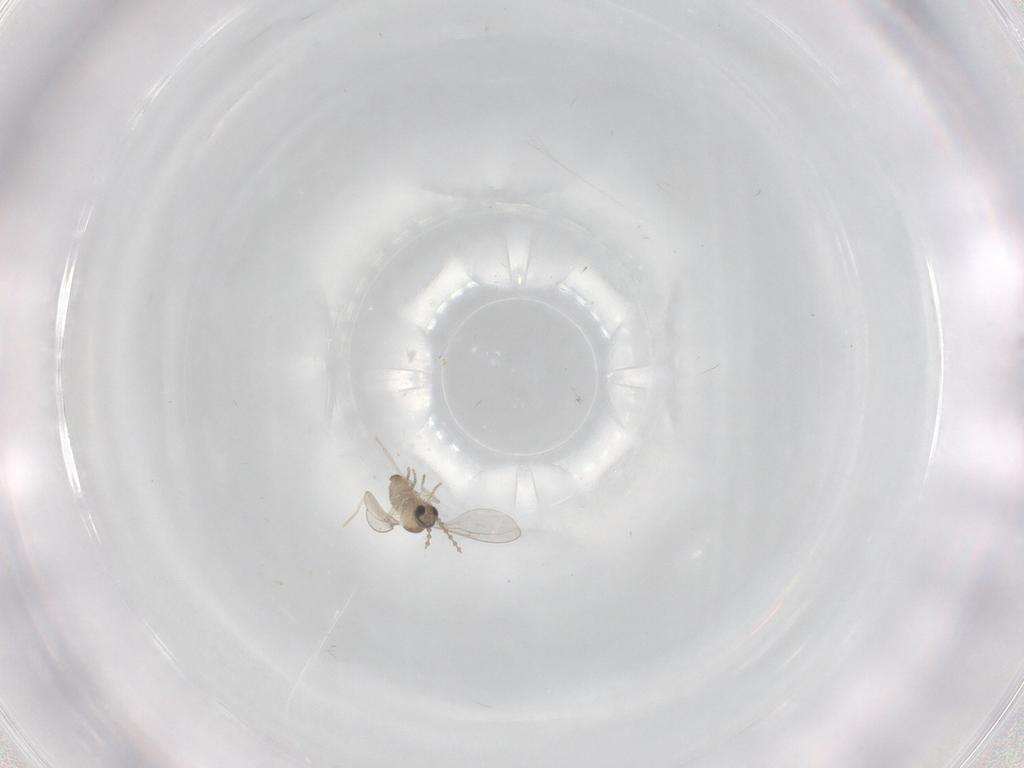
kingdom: Animalia
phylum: Arthropoda
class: Insecta
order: Diptera
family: Cecidomyiidae
